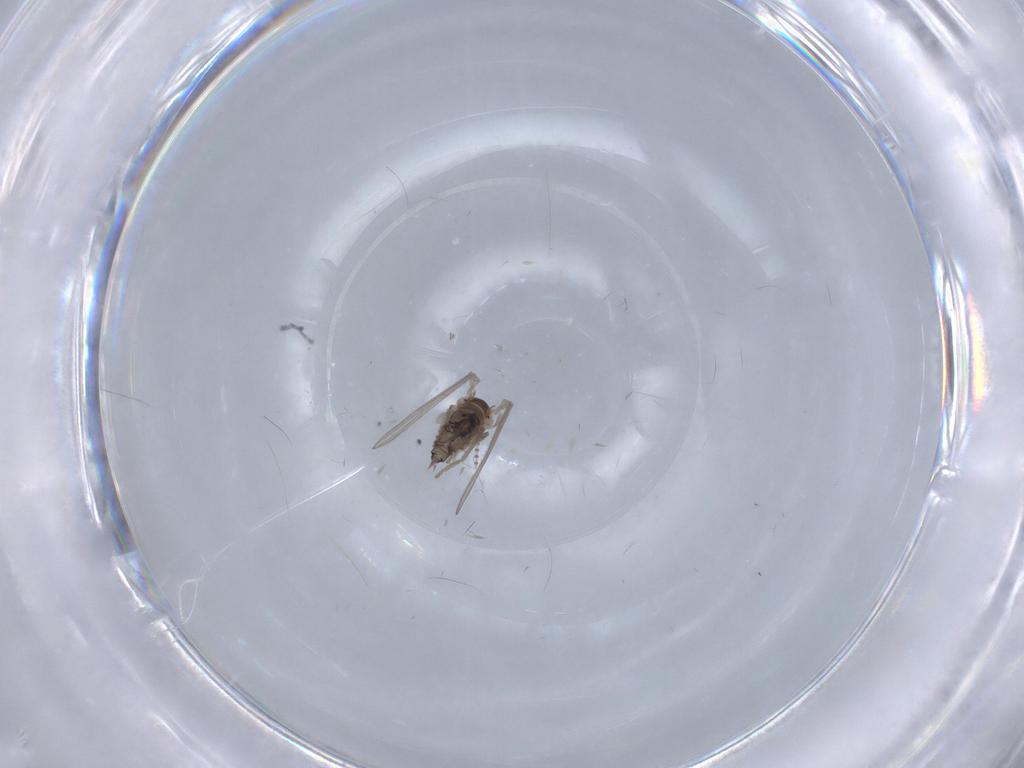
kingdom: Animalia
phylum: Arthropoda
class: Insecta
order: Diptera
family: Psychodidae
